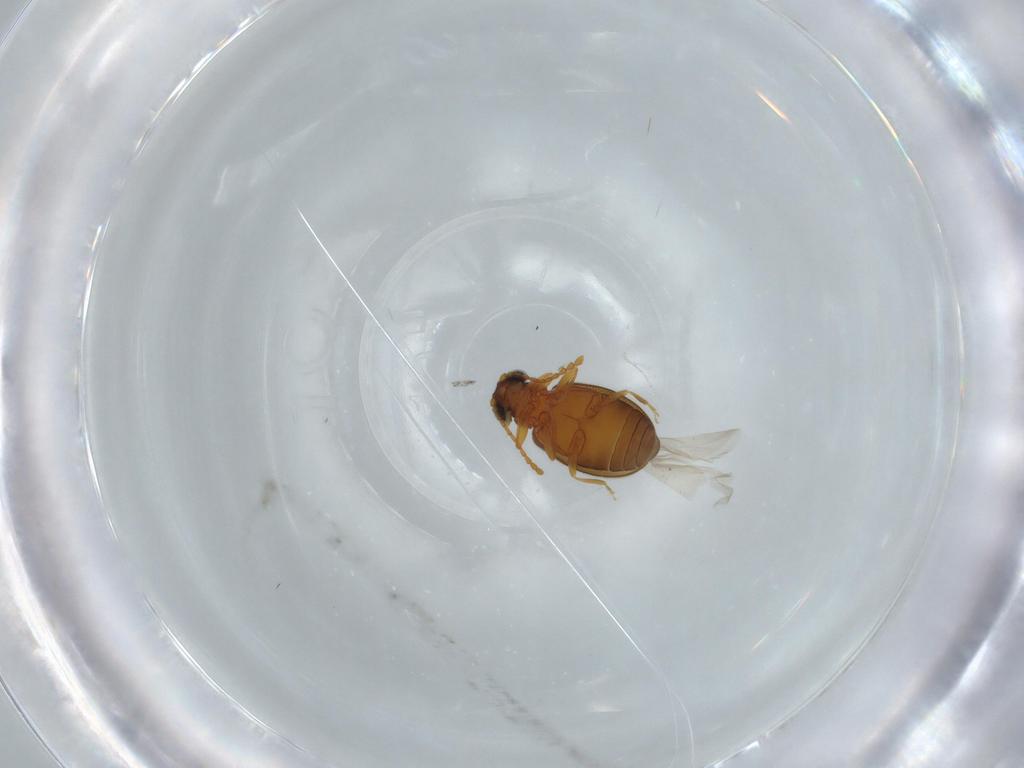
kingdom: Animalia
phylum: Arthropoda
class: Insecta
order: Coleoptera
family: Aderidae
